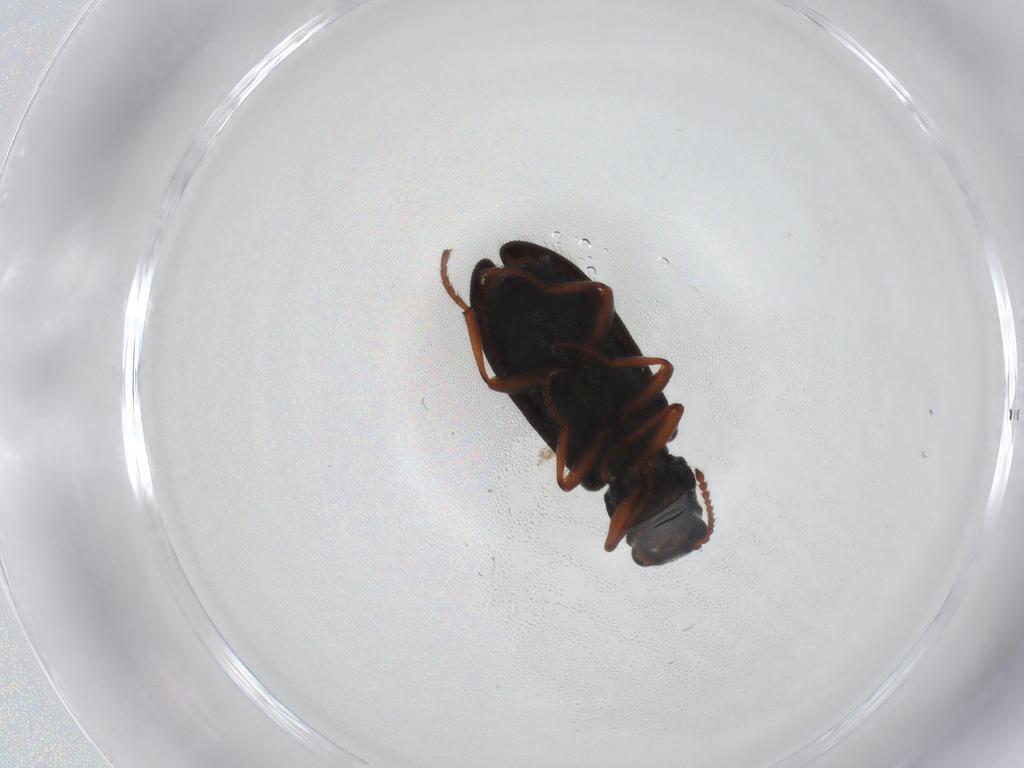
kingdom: Animalia
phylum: Arthropoda
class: Insecta
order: Coleoptera
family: Melyridae
